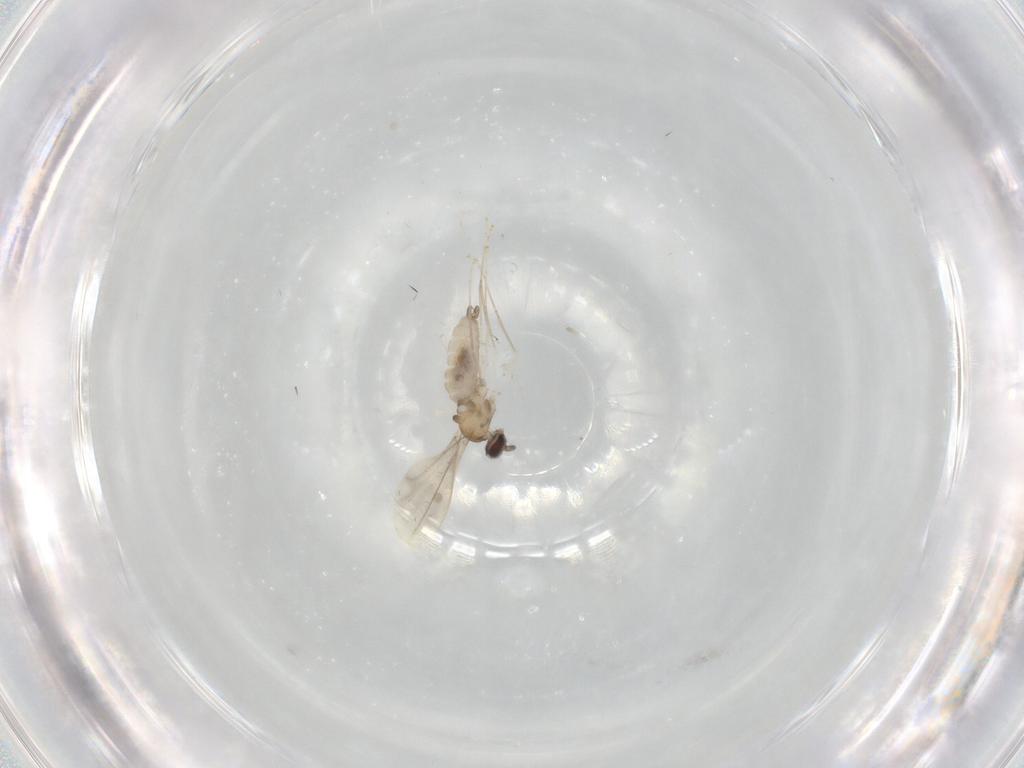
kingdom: Animalia
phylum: Arthropoda
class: Insecta
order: Diptera
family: Cecidomyiidae
